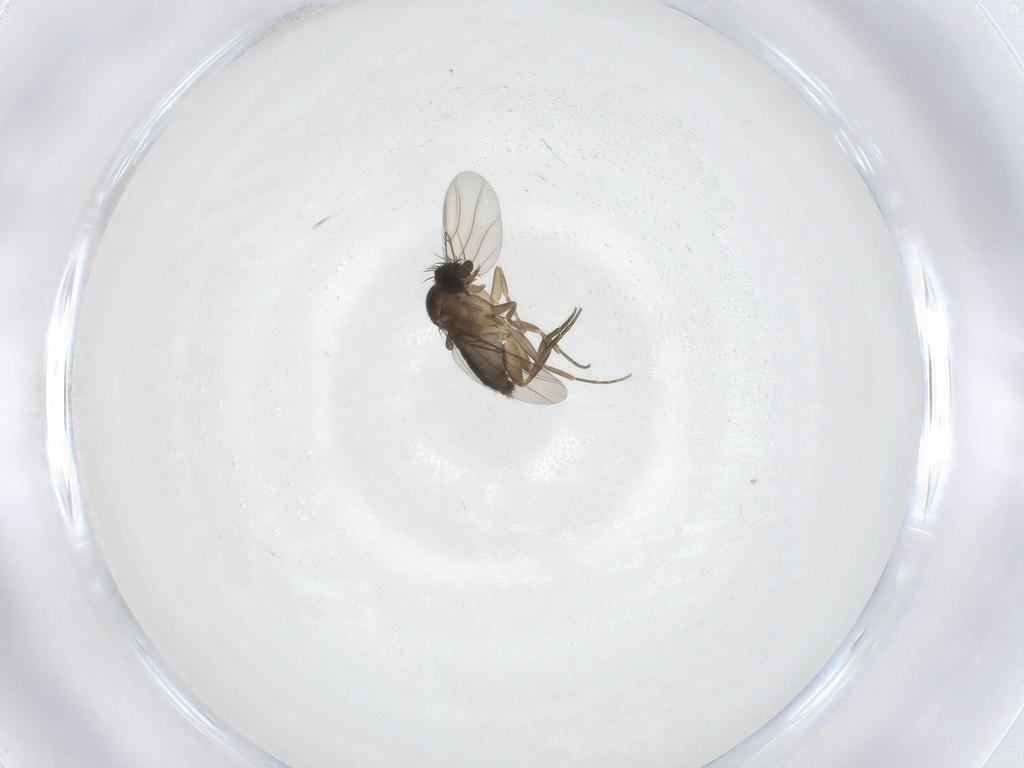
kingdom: Animalia
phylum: Arthropoda
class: Insecta
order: Diptera
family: Phoridae
